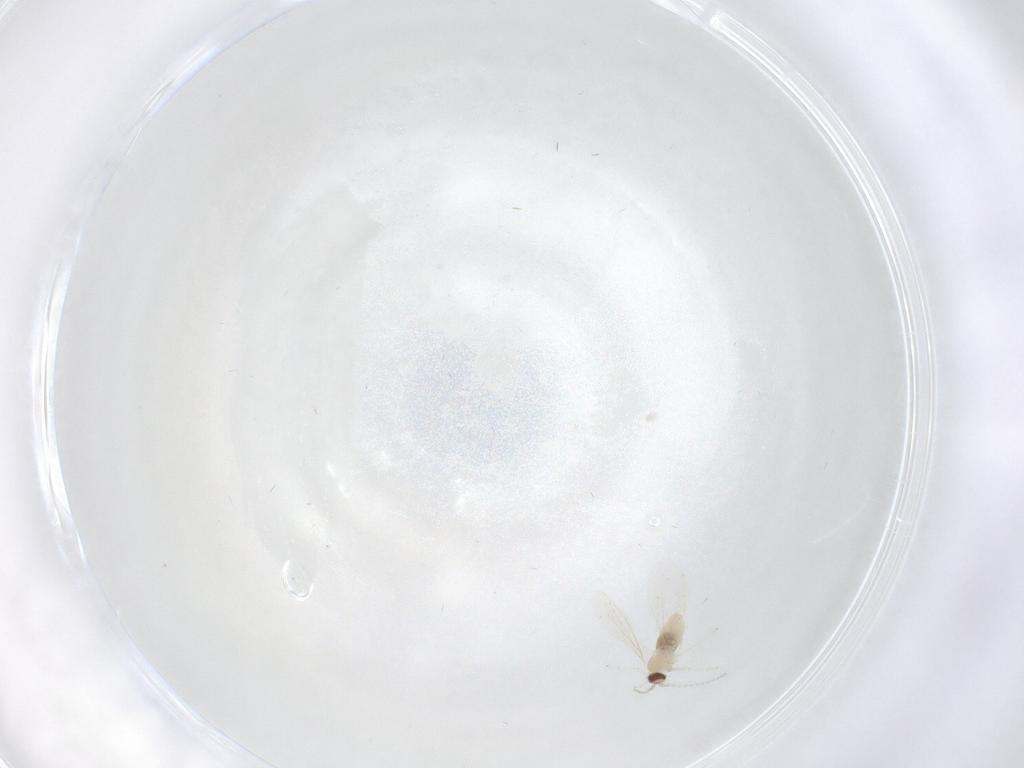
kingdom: Animalia
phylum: Arthropoda
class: Insecta
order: Diptera
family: Cecidomyiidae
